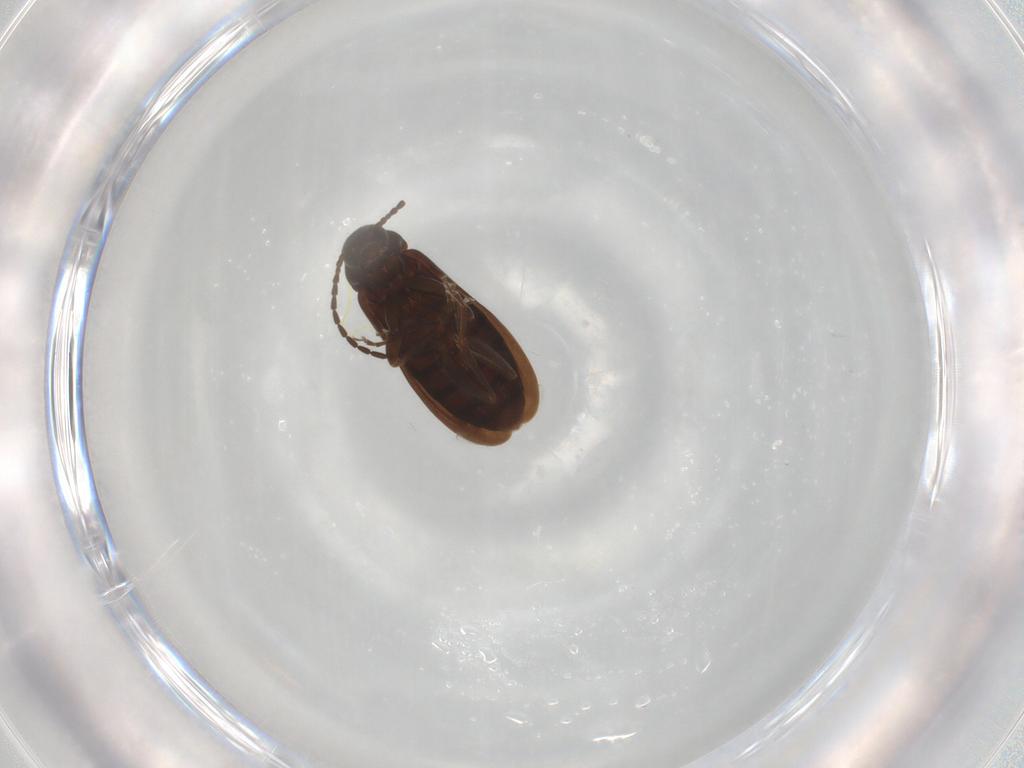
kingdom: Animalia
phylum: Arthropoda
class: Insecta
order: Coleoptera
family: Scraptiidae
